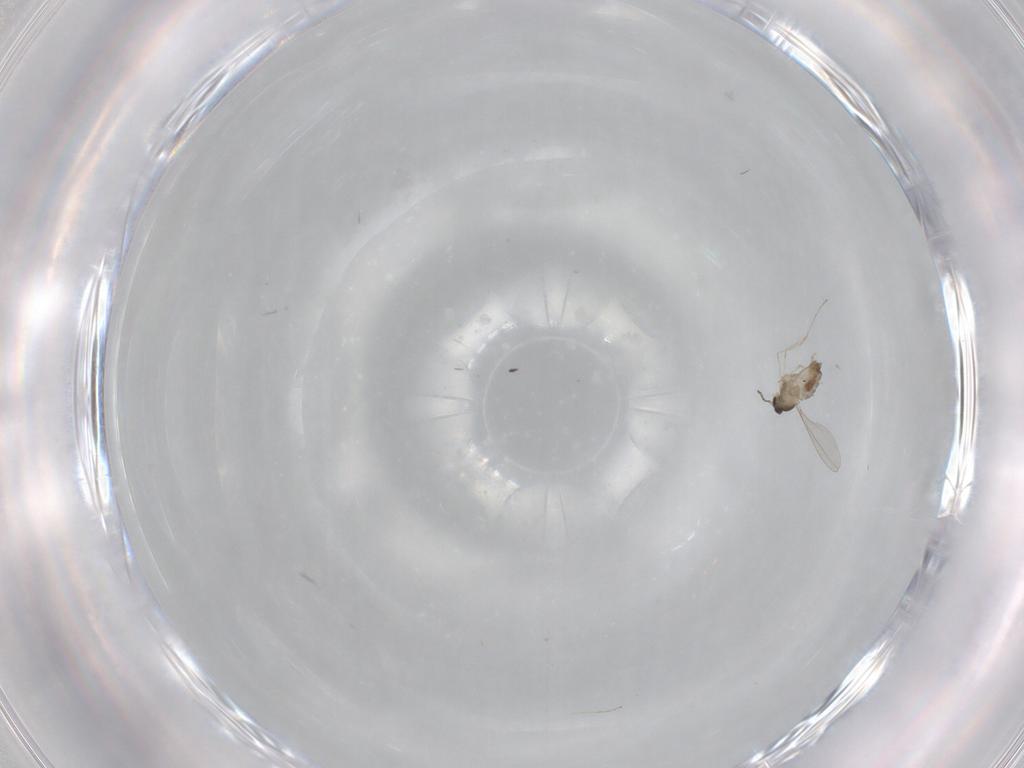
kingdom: Animalia
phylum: Arthropoda
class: Insecta
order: Diptera
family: Cecidomyiidae
